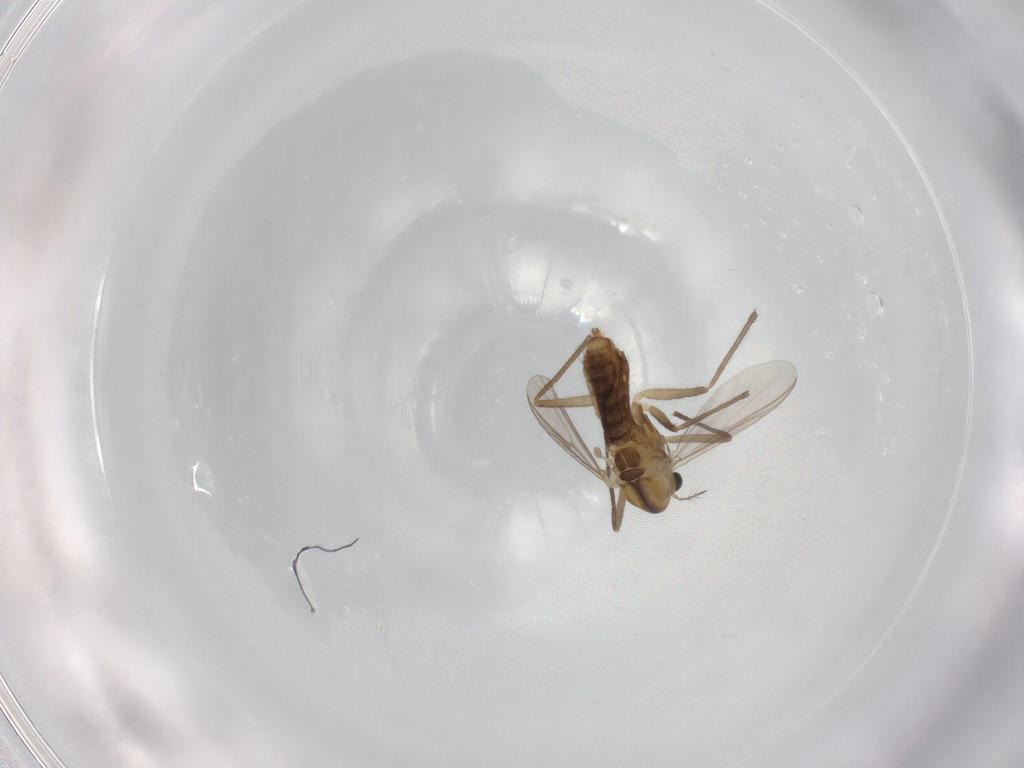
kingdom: Animalia
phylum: Arthropoda
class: Insecta
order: Diptera
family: Chironomidae
